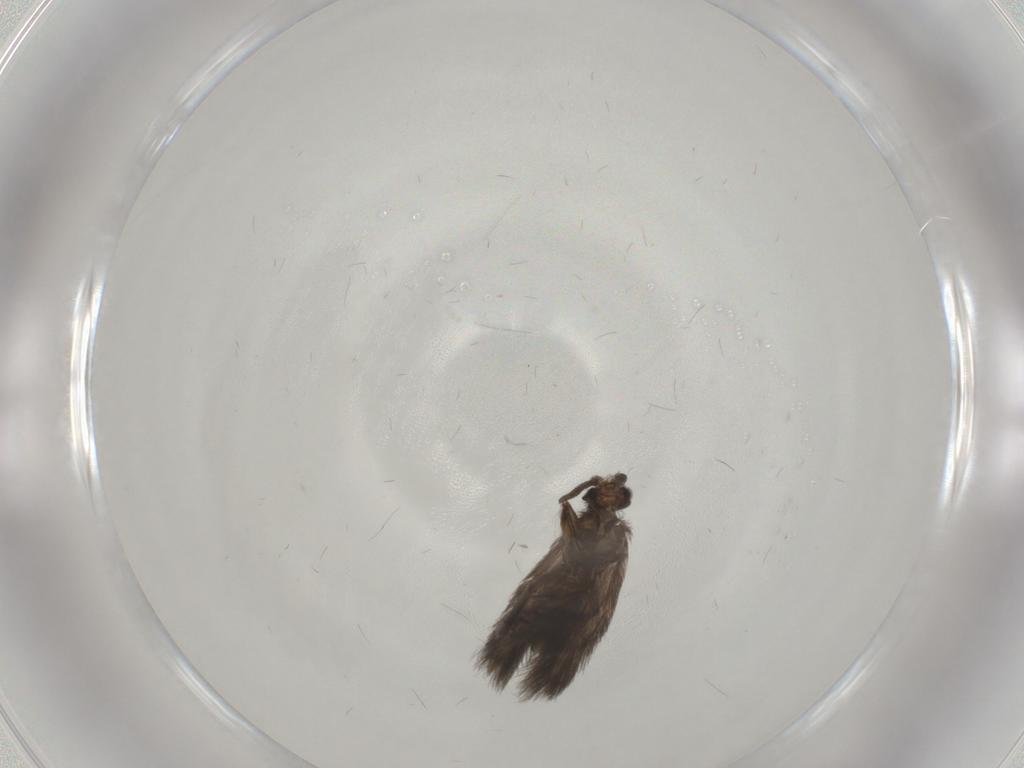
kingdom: Animalia
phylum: Arthropoda
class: Insecta
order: Trichoptera
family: Hydroptilidae
